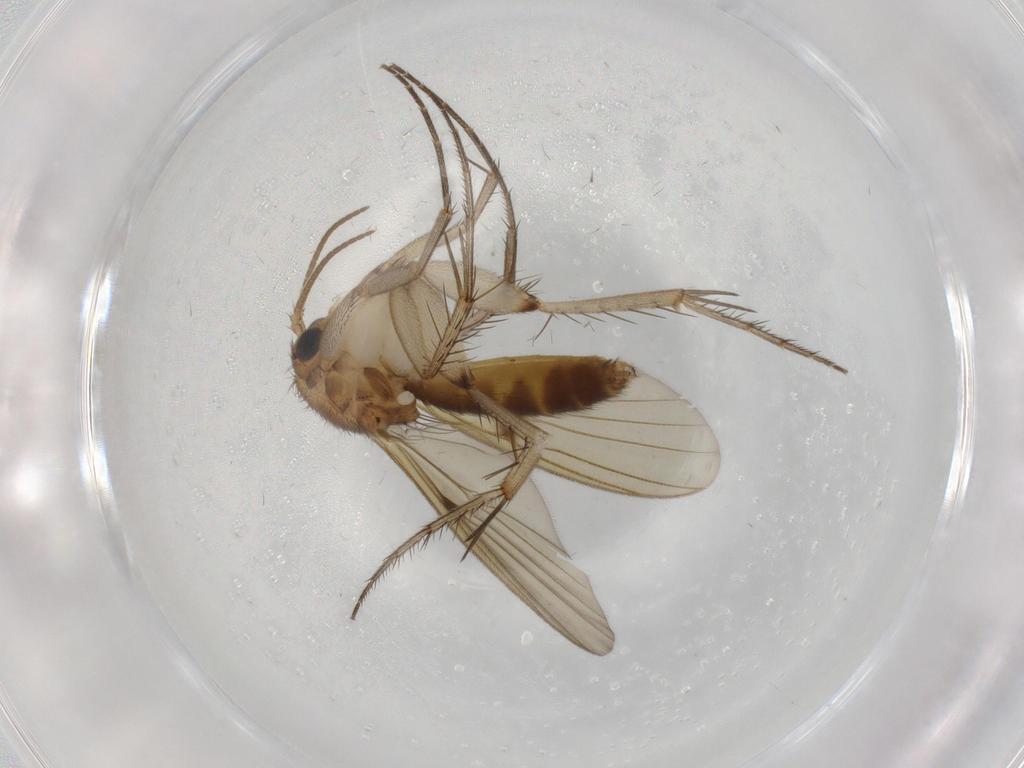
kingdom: Animalia
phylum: Arthropoda
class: Insecta
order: Diptera
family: Mycetophilidae
